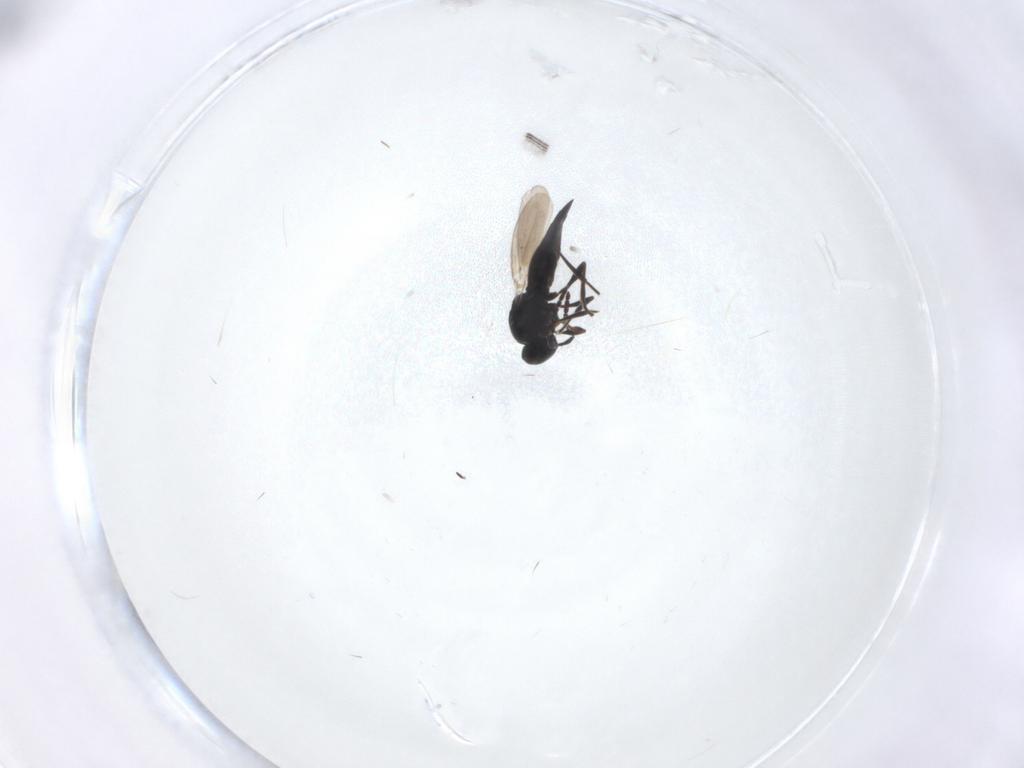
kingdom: Animalia
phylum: Arthropoda
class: Insecta
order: Hymenoptera
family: Platygastridae
